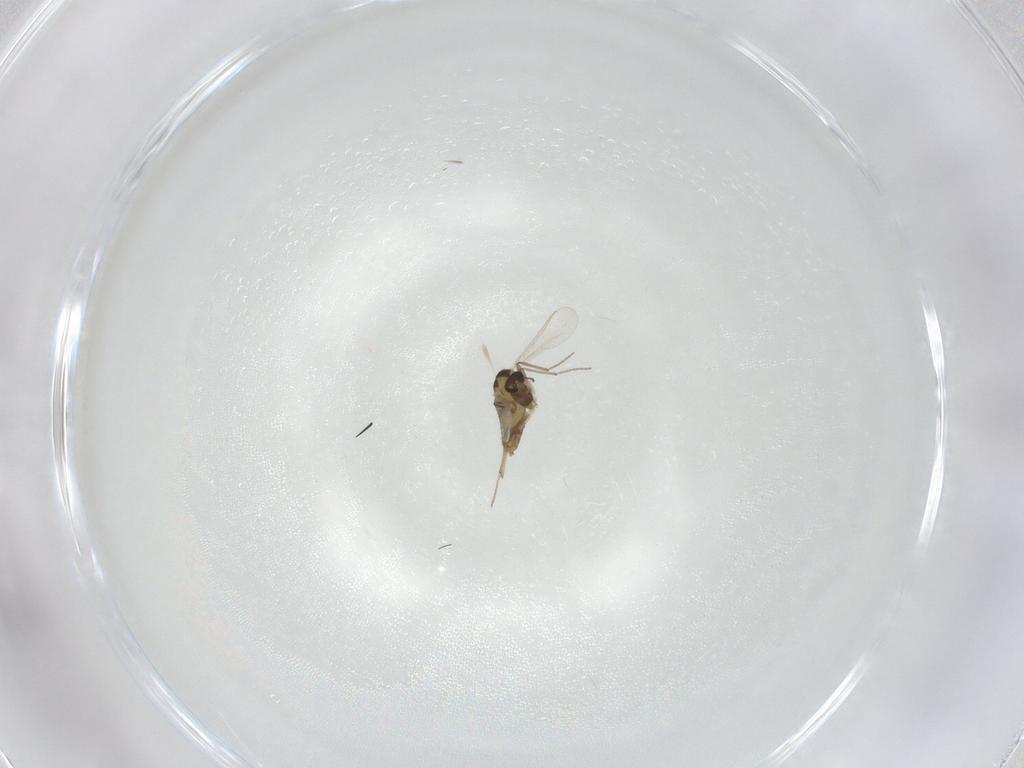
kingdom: Animalia
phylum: Arthropoda
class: Insecta
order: Diptera
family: Chironomidae
